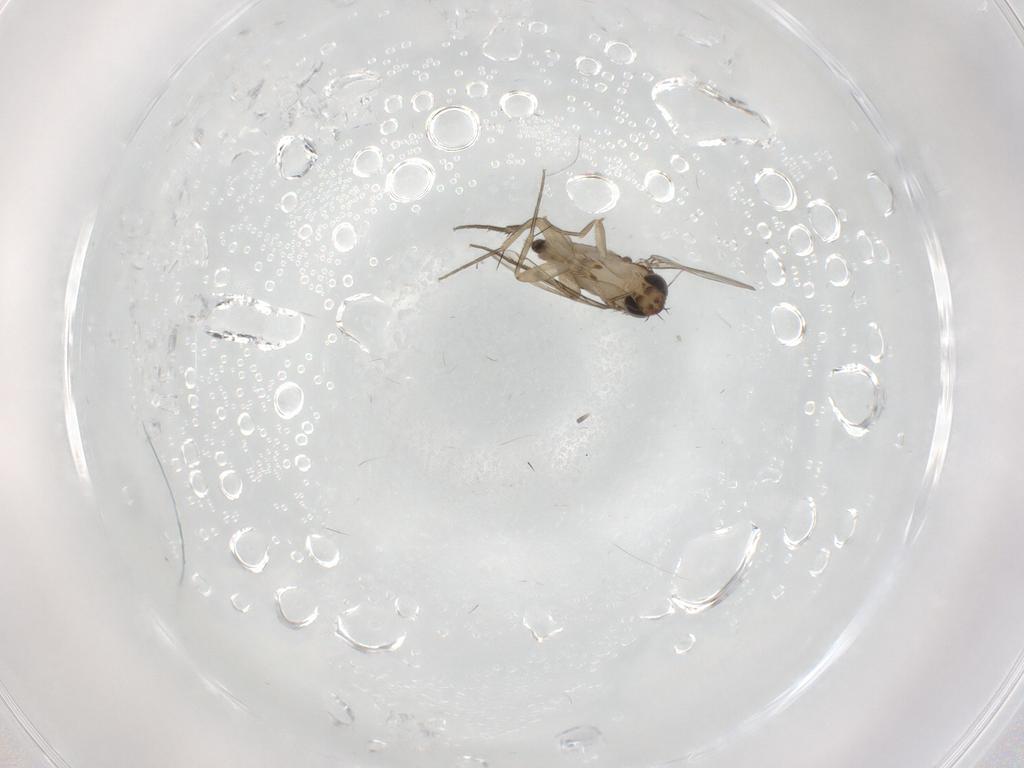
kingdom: Animalia
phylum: Arthropoda
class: Insecta
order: Diptera
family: Phoridae
